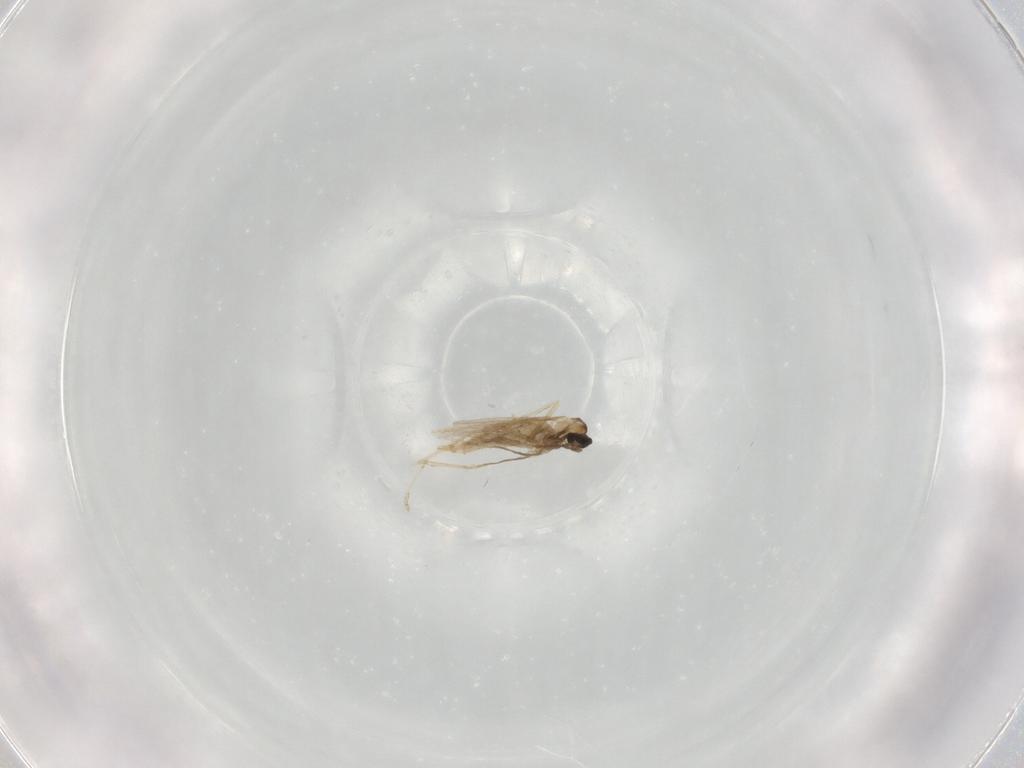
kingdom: Animalia
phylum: Arthropoda
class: Insecta
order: Diptera
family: Cecidomyiidae
